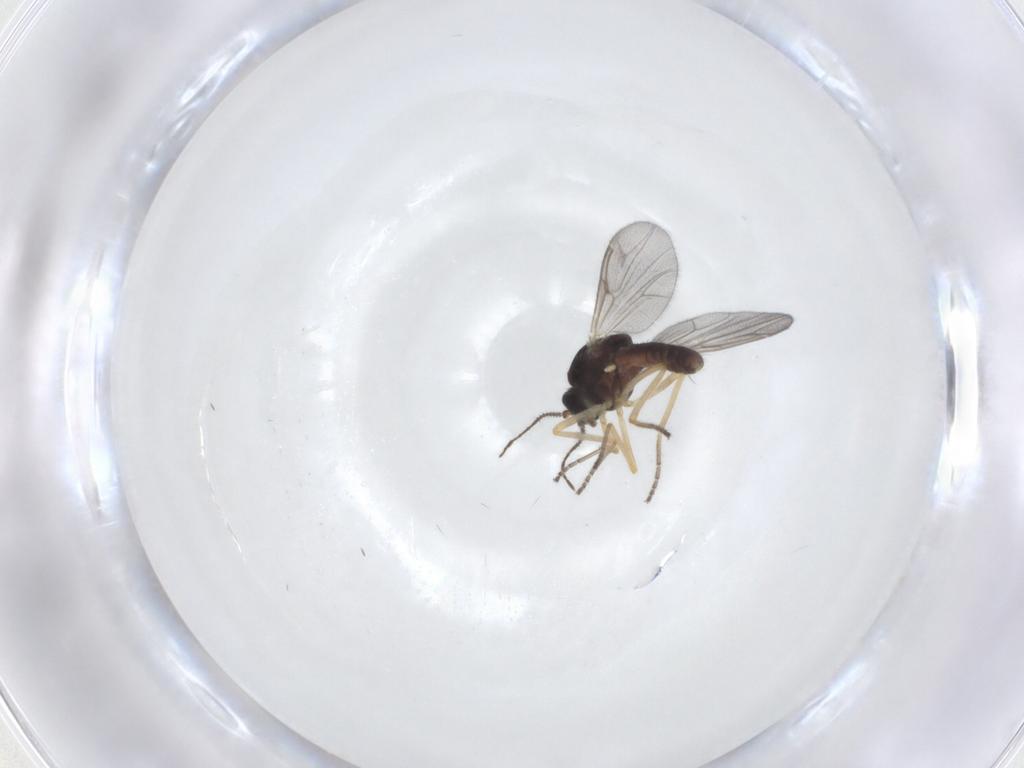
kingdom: Animalia
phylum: Arthropoda
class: Insecta
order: Diptera
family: Ceratopogonidae
